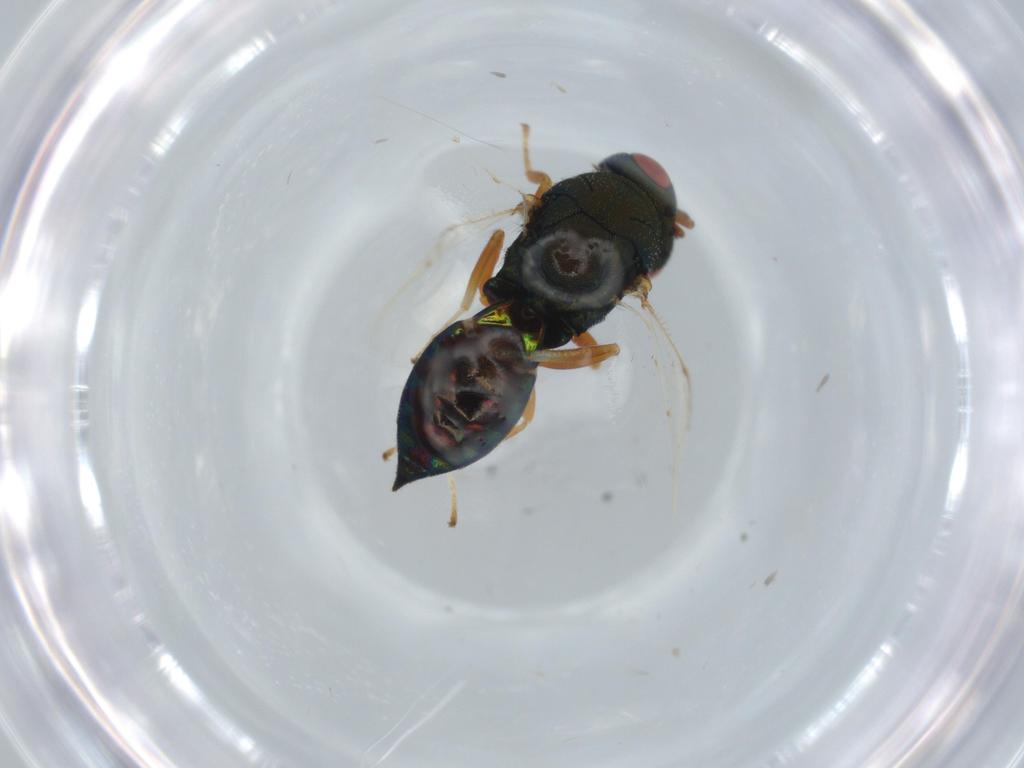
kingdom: Animalia
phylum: Arthropoda
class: Insecta
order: Hymenoptera
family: Pteromalidae
